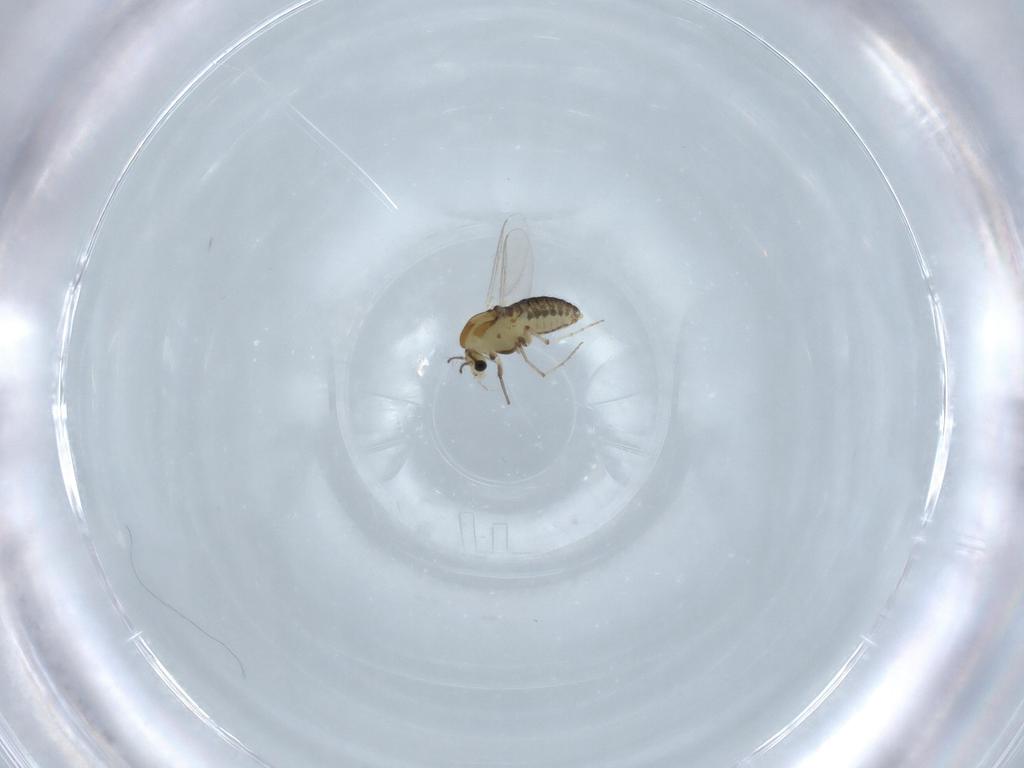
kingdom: Animalia
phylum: Arthropoda
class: Insecta
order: Diptera
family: Chironomidae
